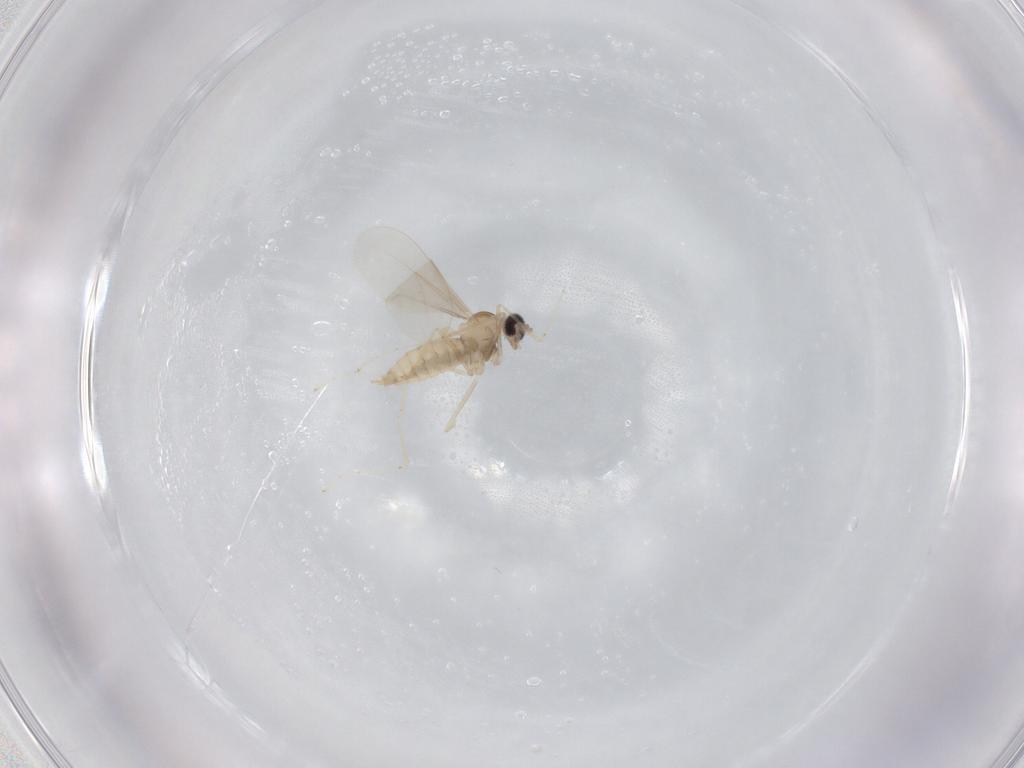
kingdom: Animalia
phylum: Arthropoda
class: Insecta
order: Diptera
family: Cecidomyiidae
